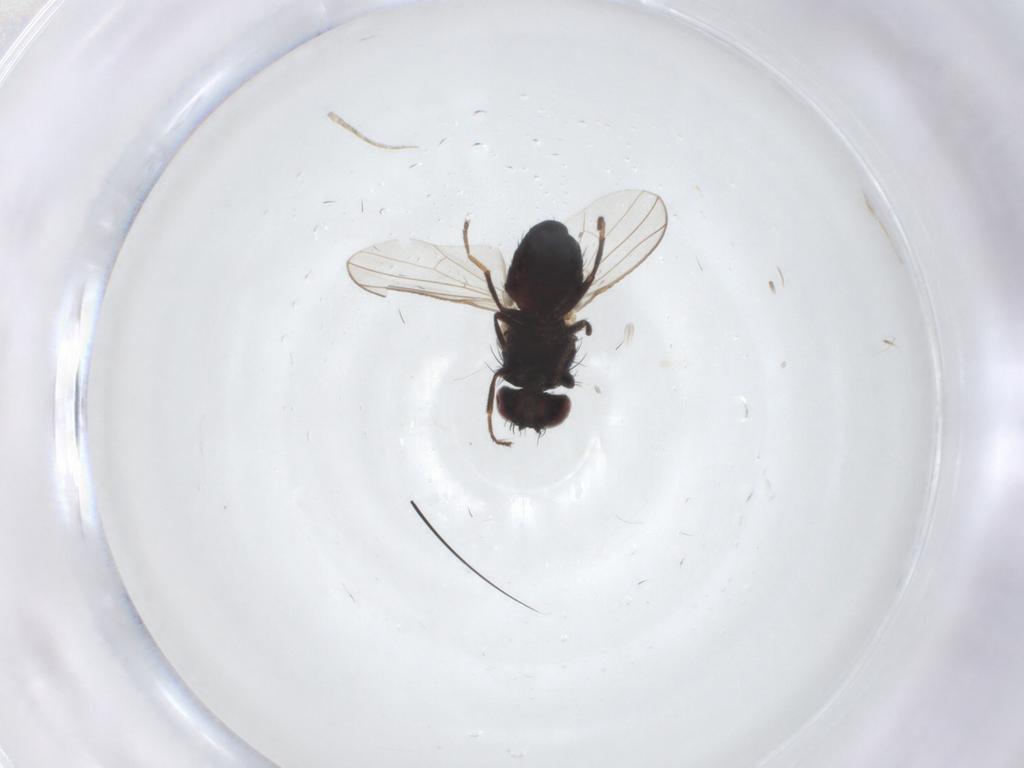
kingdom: Animalia
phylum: Arthropoda
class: Insecta
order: Diptera
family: Carnidae
